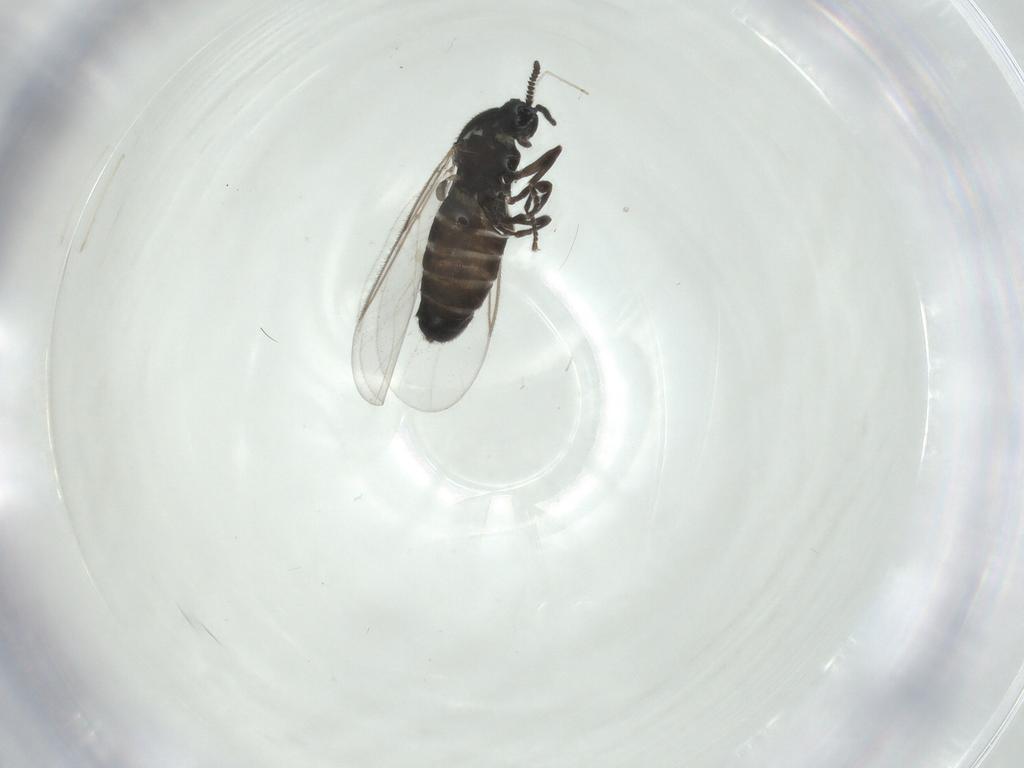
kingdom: Animalia
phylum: Arthropoda
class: Insecta
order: Diptera
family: Scatopsidae
